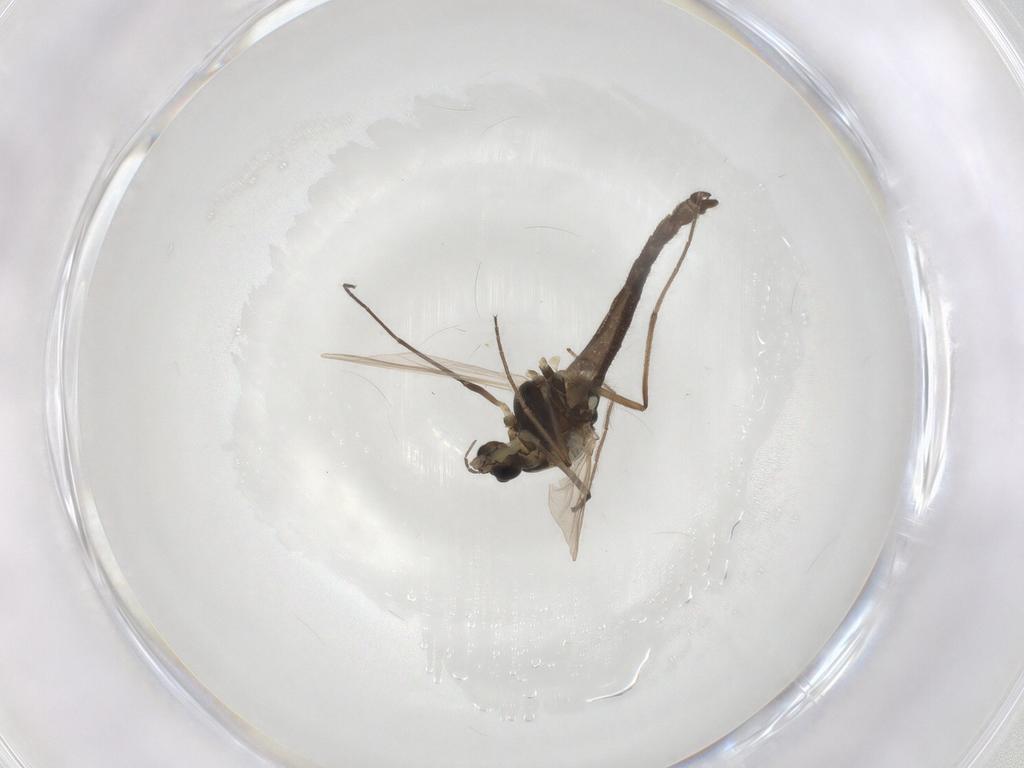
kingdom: Animalia
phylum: Arthropoda
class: Insecta
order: Diptera
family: Chironomidae
